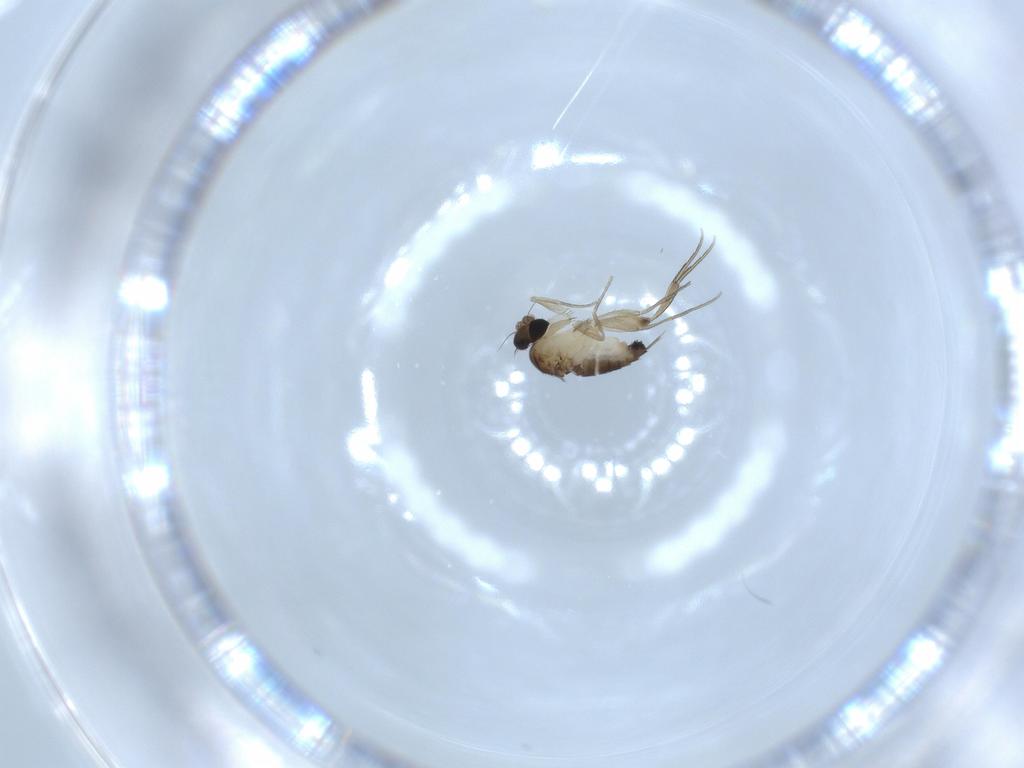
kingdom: Animalia
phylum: Arthropoda
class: Insecta
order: Diptera
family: Phoridae
